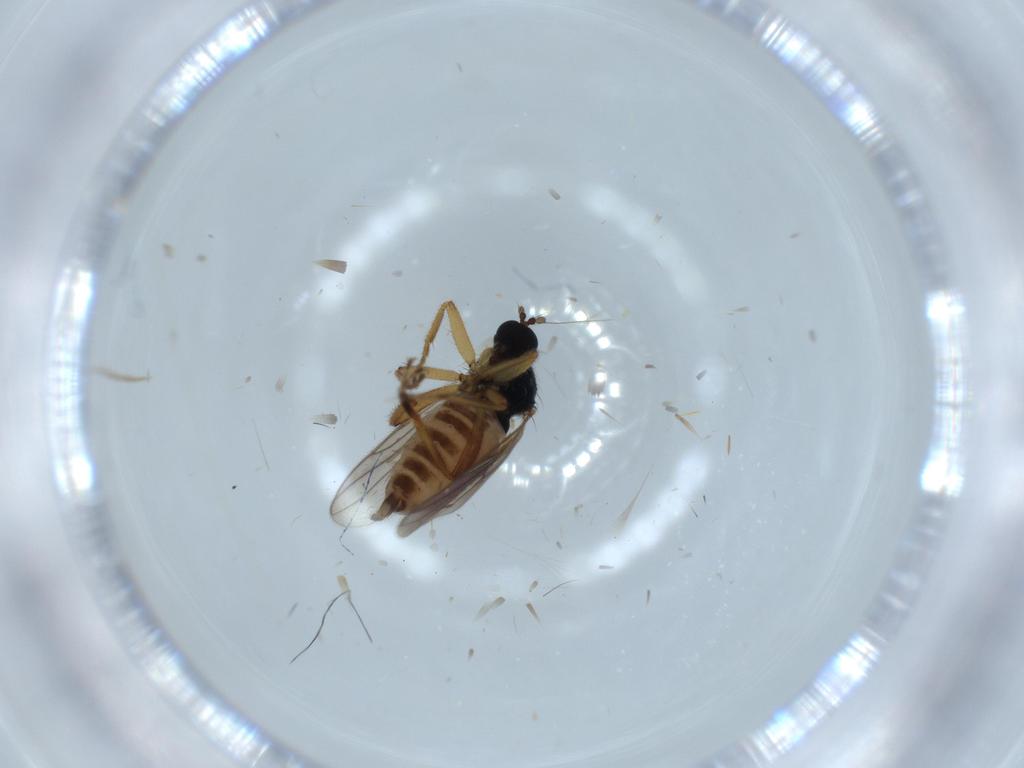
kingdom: Animalia
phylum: Arthropoda
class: Insecta
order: Diptera
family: Hybotidae
